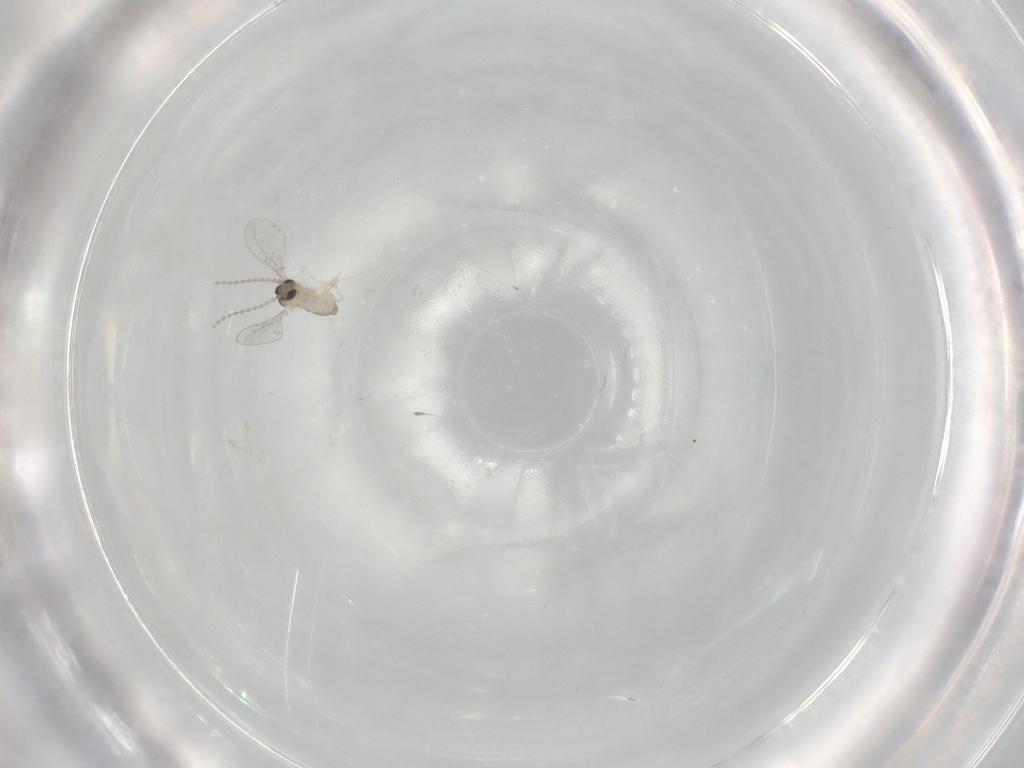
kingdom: Animalia
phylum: Arthropoda
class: Insecta
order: Diptera
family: Cecidomyiidae
